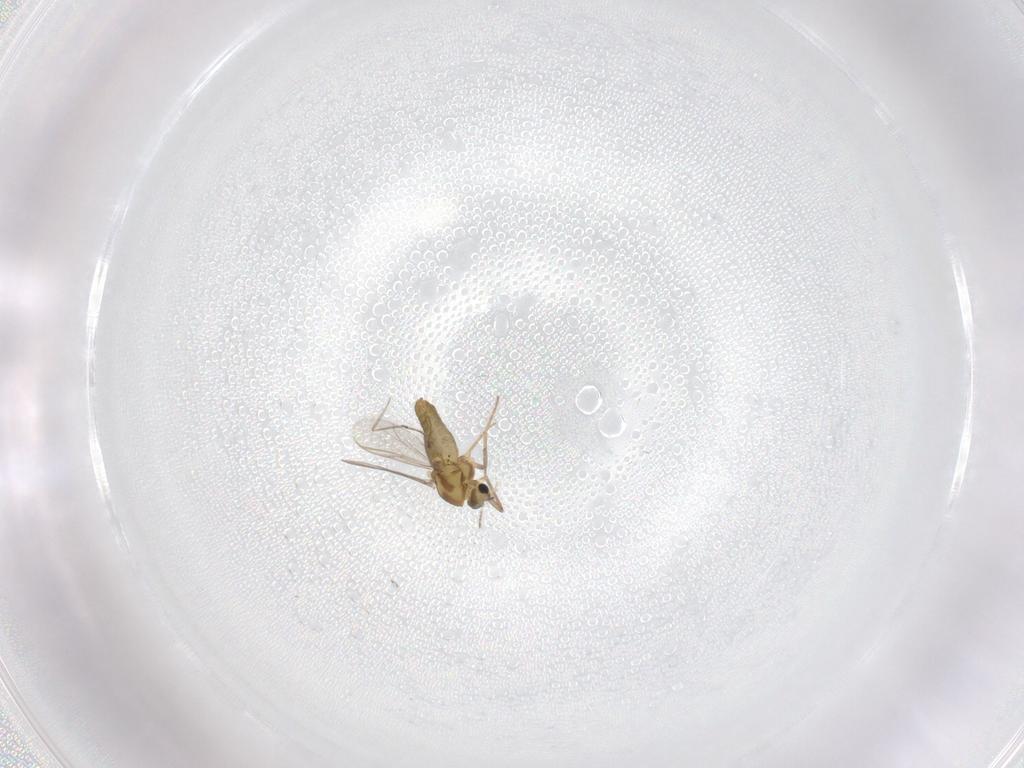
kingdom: Animalia
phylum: Arthropoda
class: Insecta
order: Diptera
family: Chironomidae
